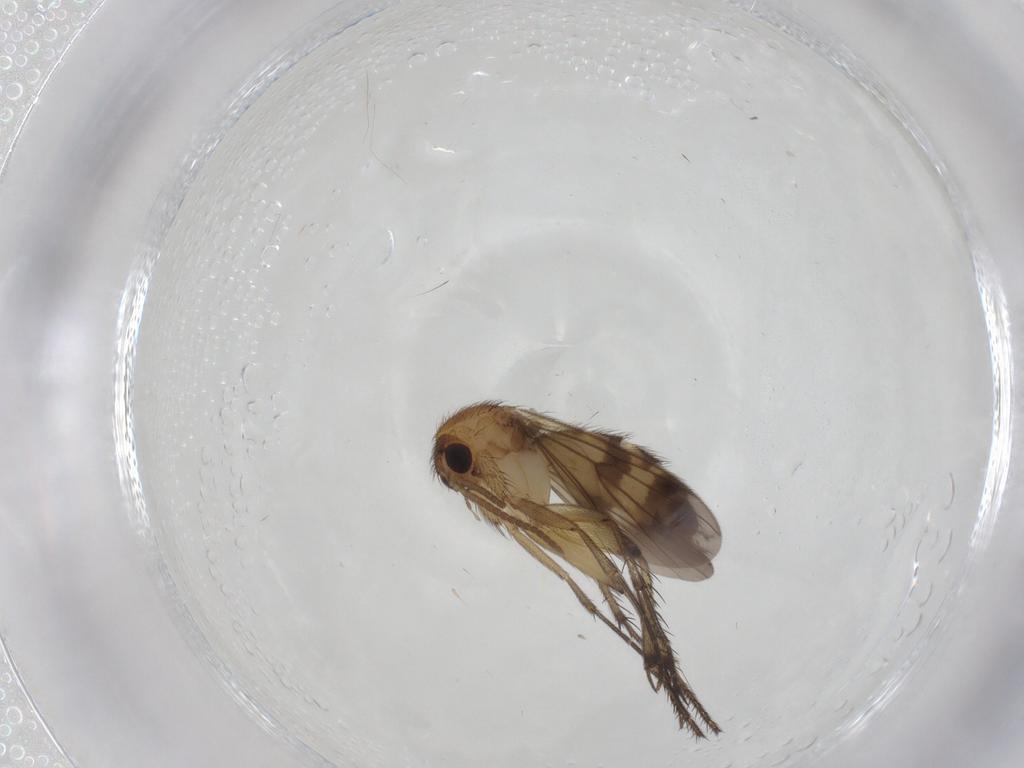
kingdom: Animalia
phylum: Arthropoda
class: Insecta
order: Diptera
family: Mycetophilidae
